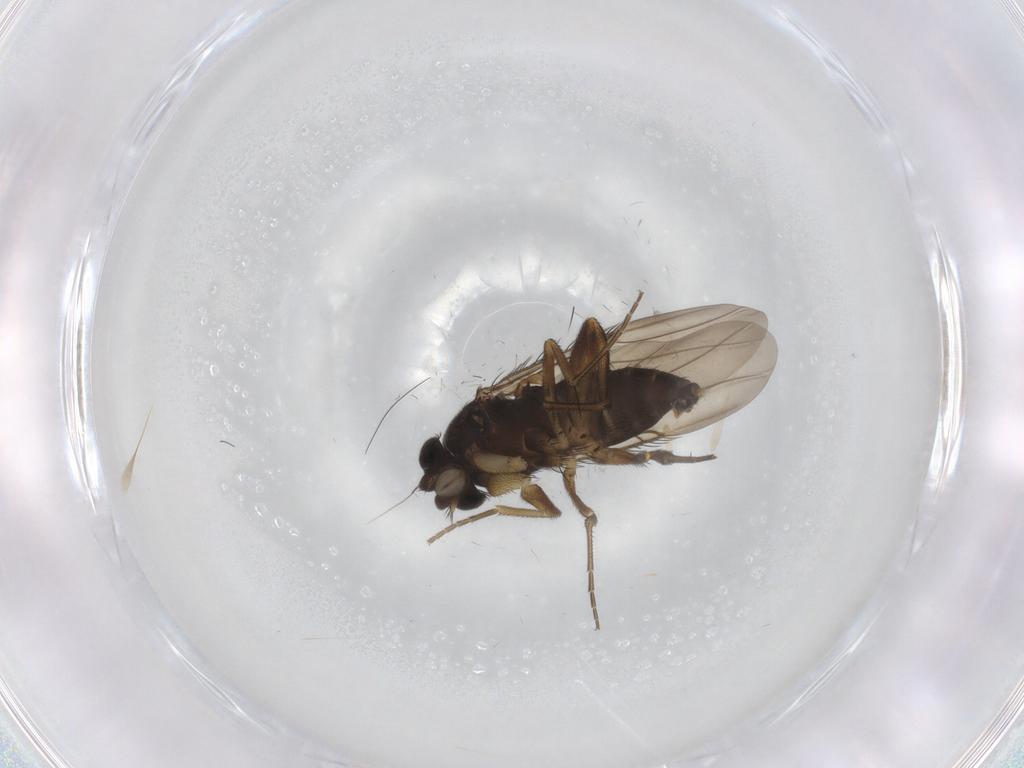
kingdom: Animalia
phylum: Arthropoda
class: Insecta
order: Diptera
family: Phoridae
